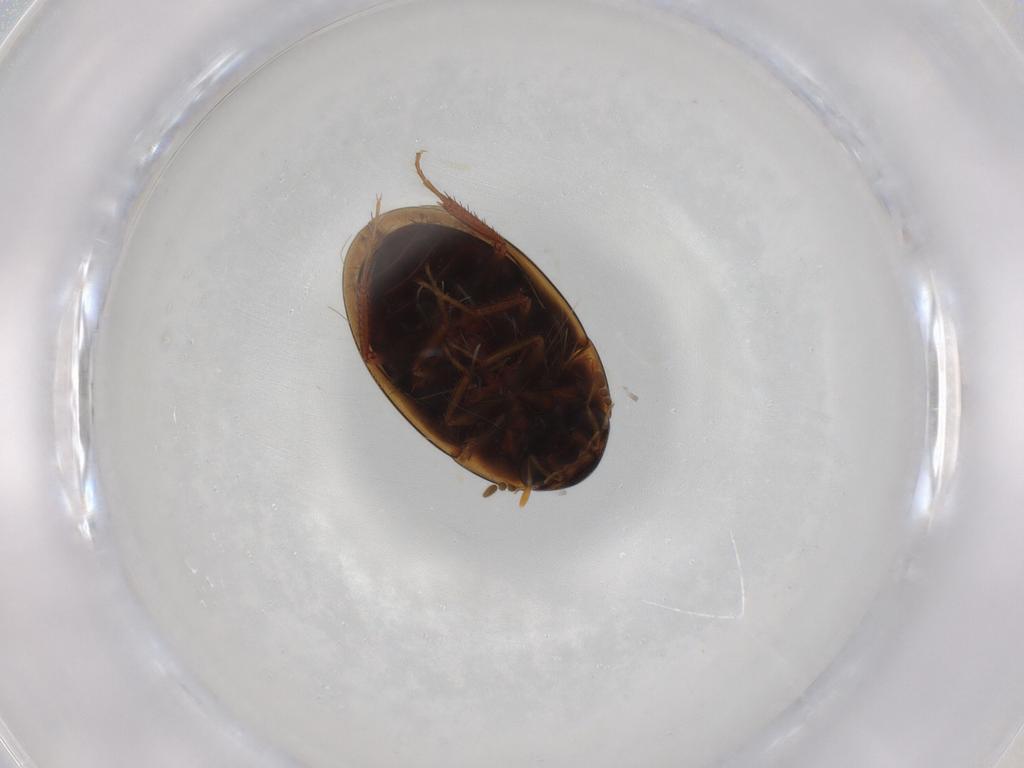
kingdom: Animalia
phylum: Arthropoda
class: Insecta
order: Coleoptera
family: Hydrophilidae
